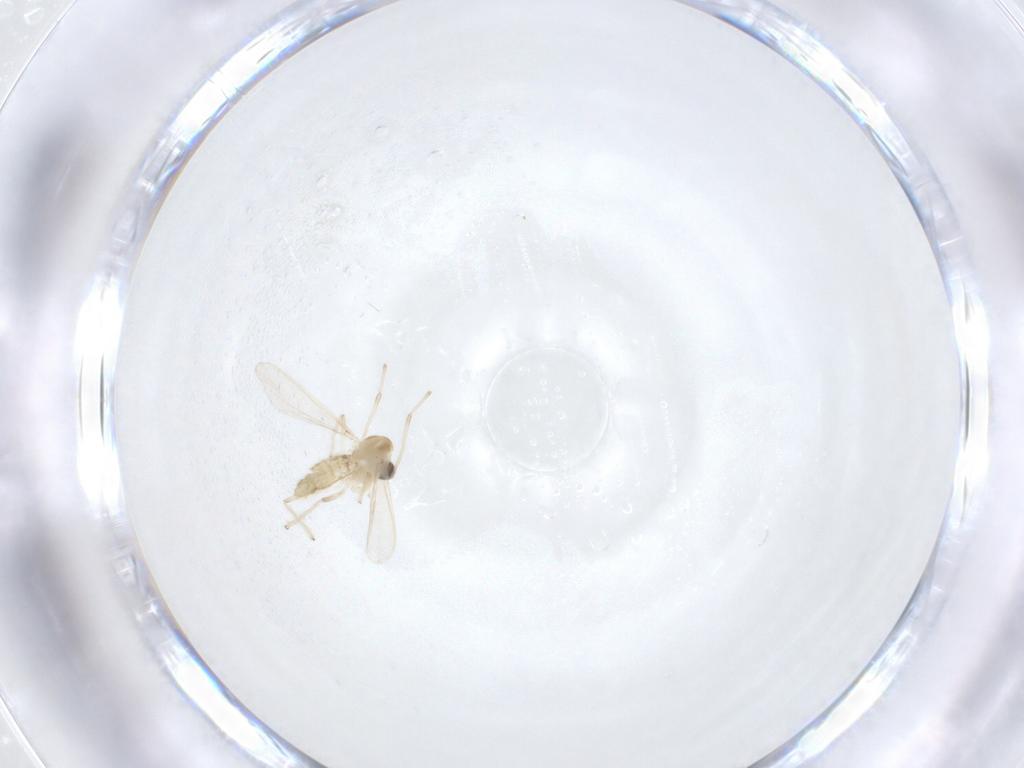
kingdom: Animalia
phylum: Arthropoda
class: Insecta
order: Diptera
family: Chironomidae
